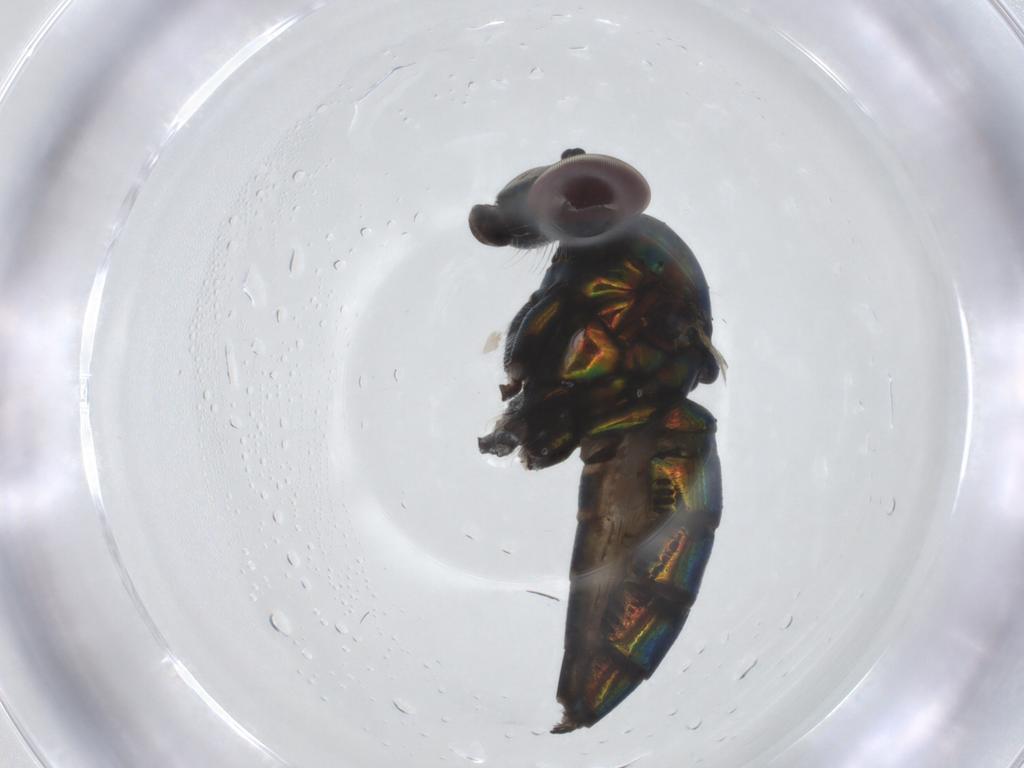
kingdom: Animalia
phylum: Arthropoda
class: Insecta
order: Diptera
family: Dolichopodidae
